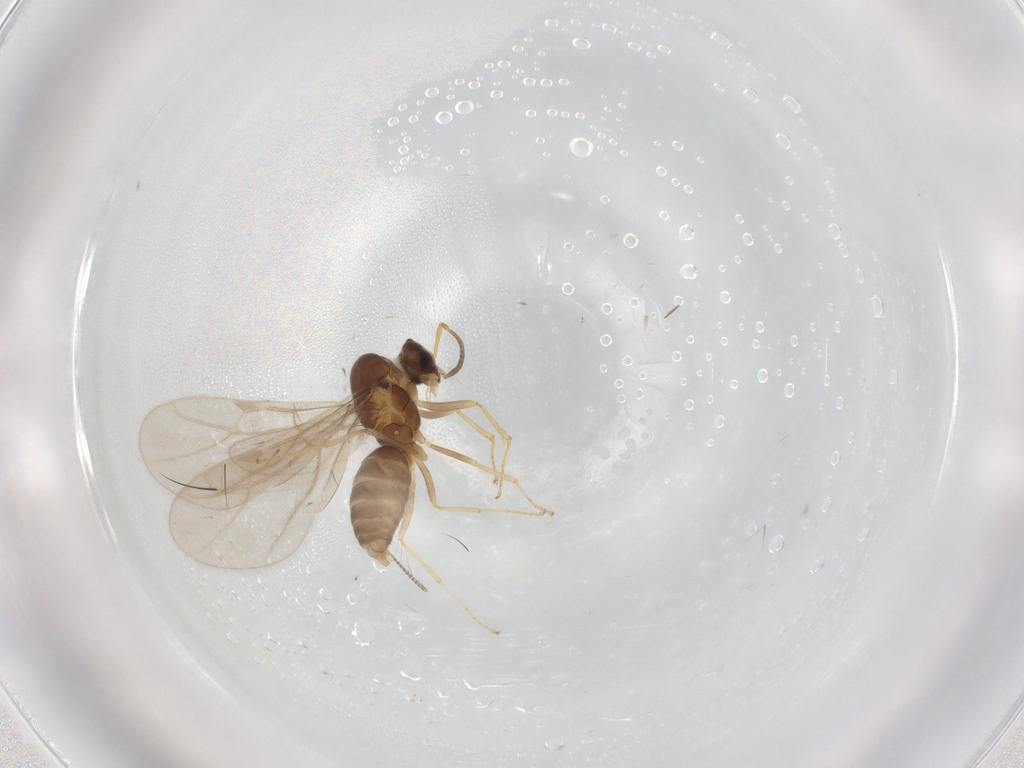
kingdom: Animalia
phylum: Arthropoda
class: Insecta
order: Hymenoptera
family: Formicidae
